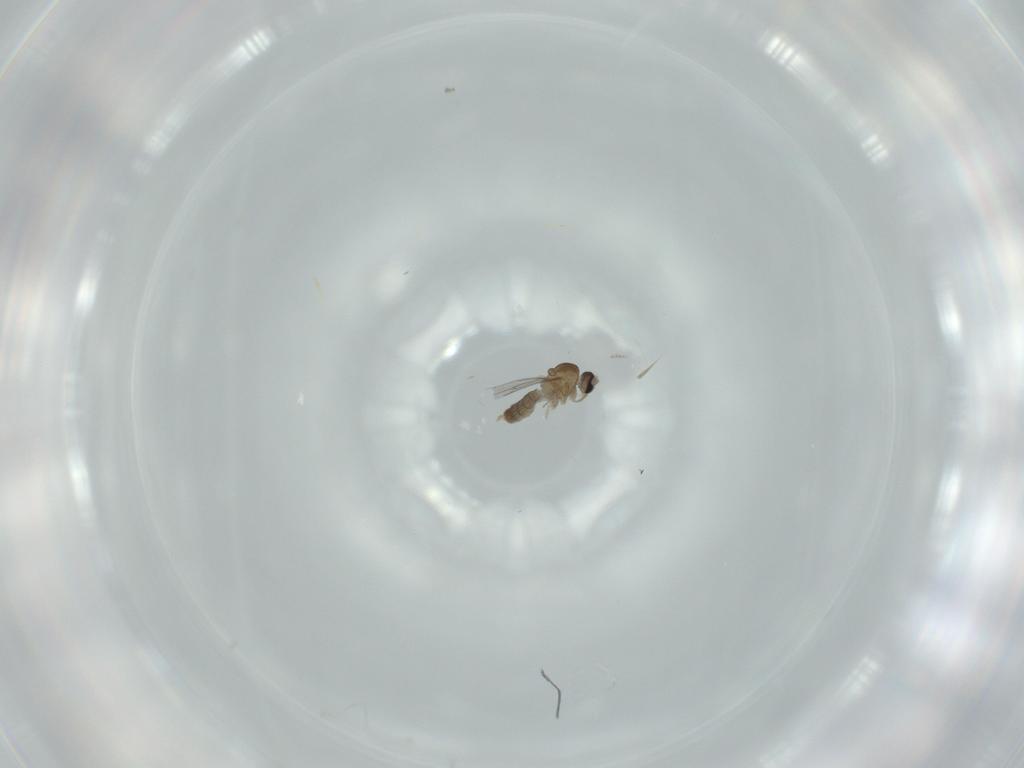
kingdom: Animalia
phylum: Arthropoda
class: Insecta
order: Diptera
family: Cecidomyiidae
